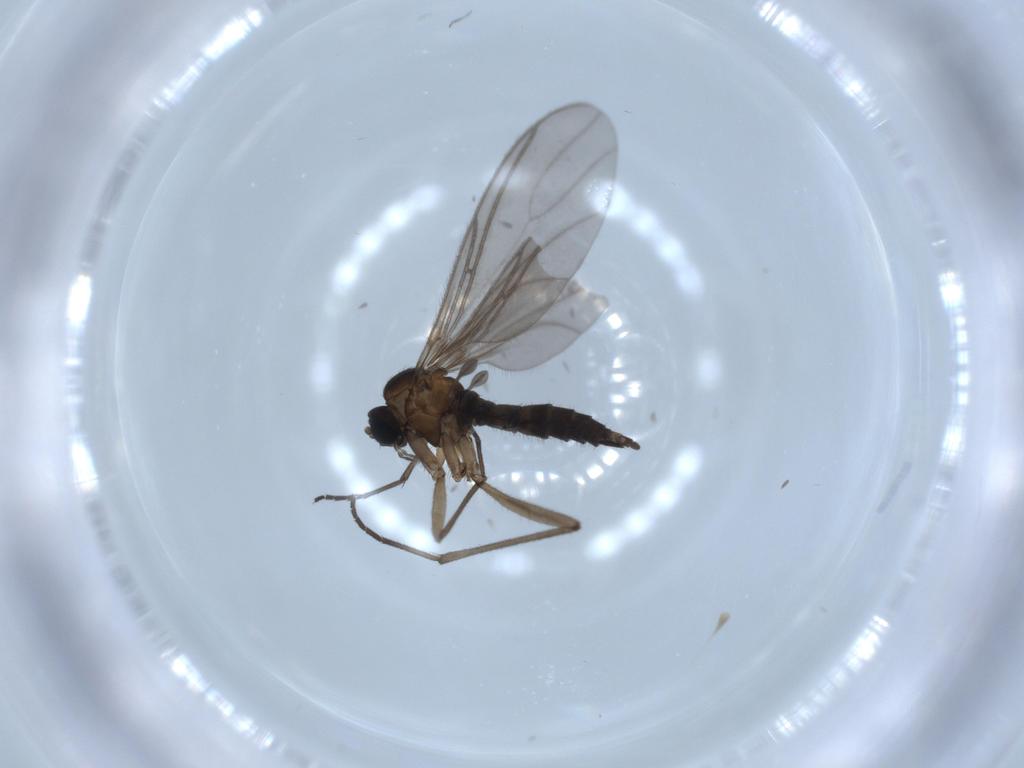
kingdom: Animalia
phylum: Arthropoda
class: Insecta
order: Diptera
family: Sciaridae
